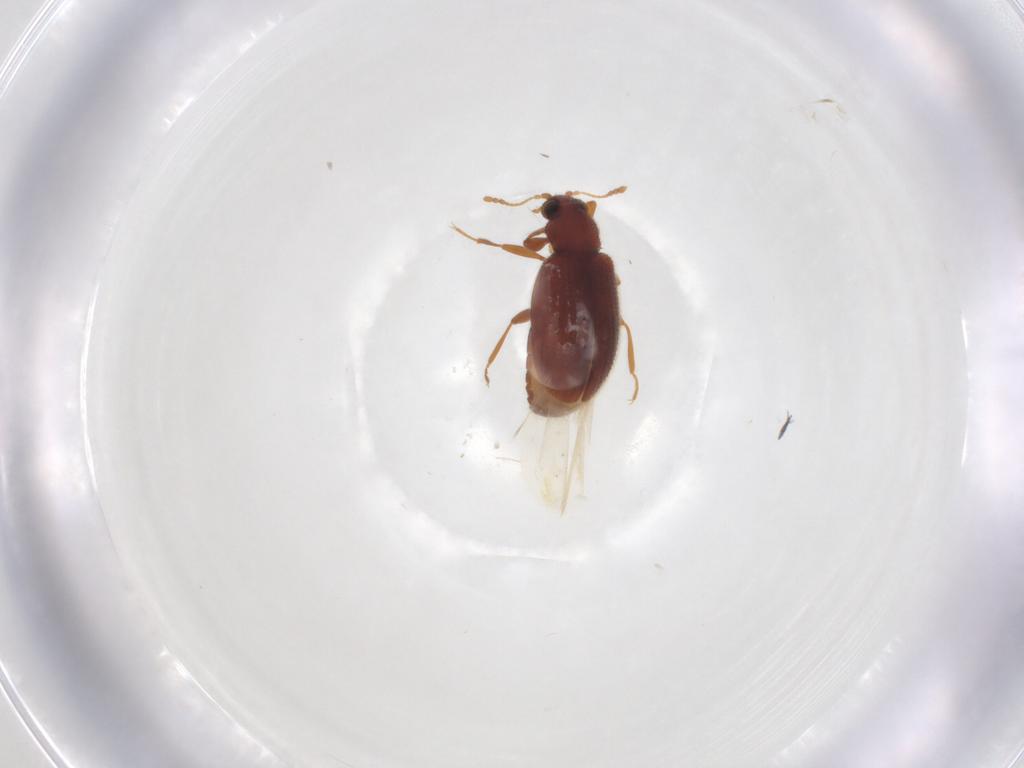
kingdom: Animalia
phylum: Arthropoda
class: Insecta
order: Coleoptera
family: Latridiidae
